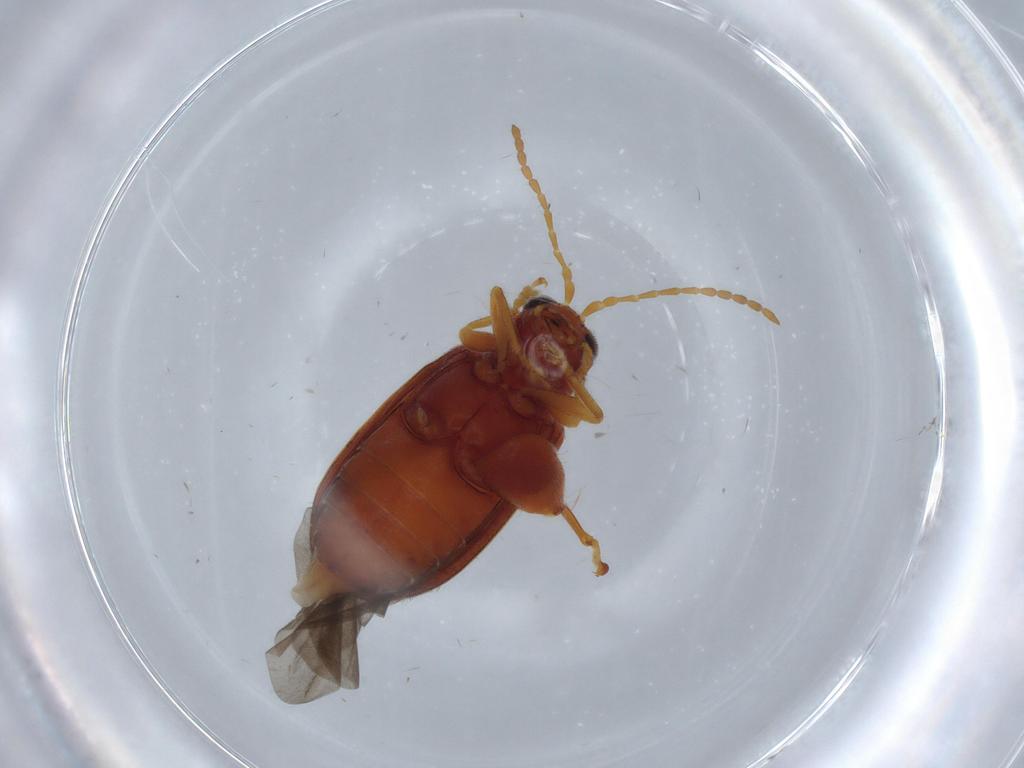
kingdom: Animalia
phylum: Arthropoda
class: Insecta
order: Coleoptera
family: Chrysomelidae
